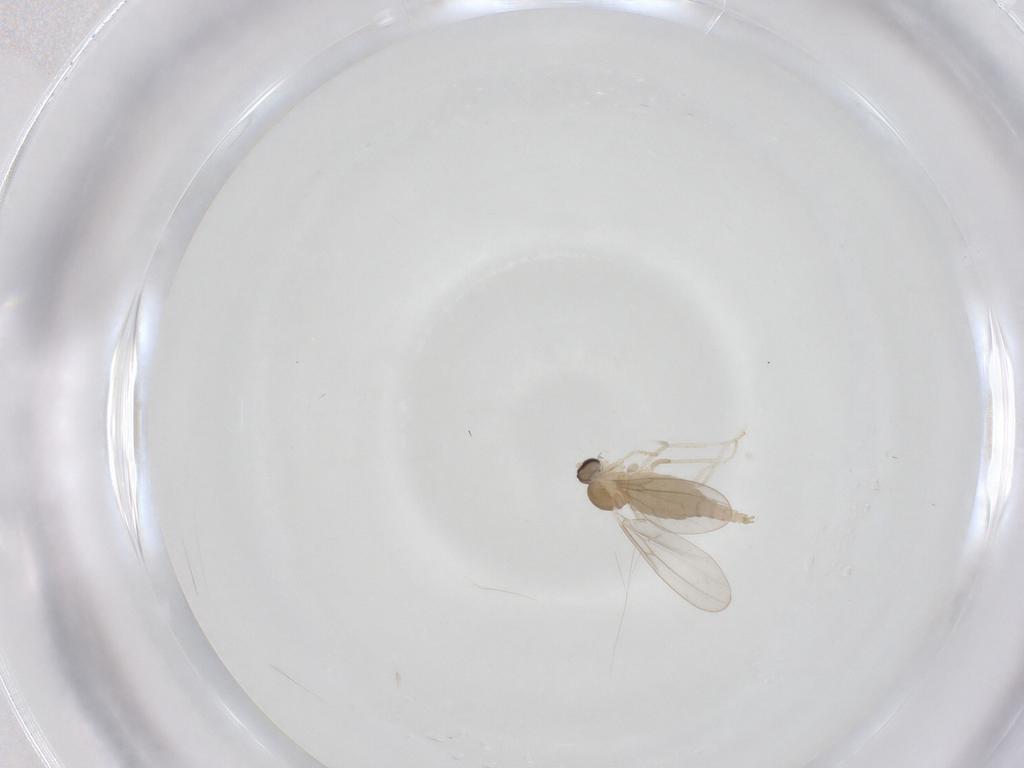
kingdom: Animalia
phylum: Arthropoda
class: Insecta
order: Diptera
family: Cecidomyiidae
